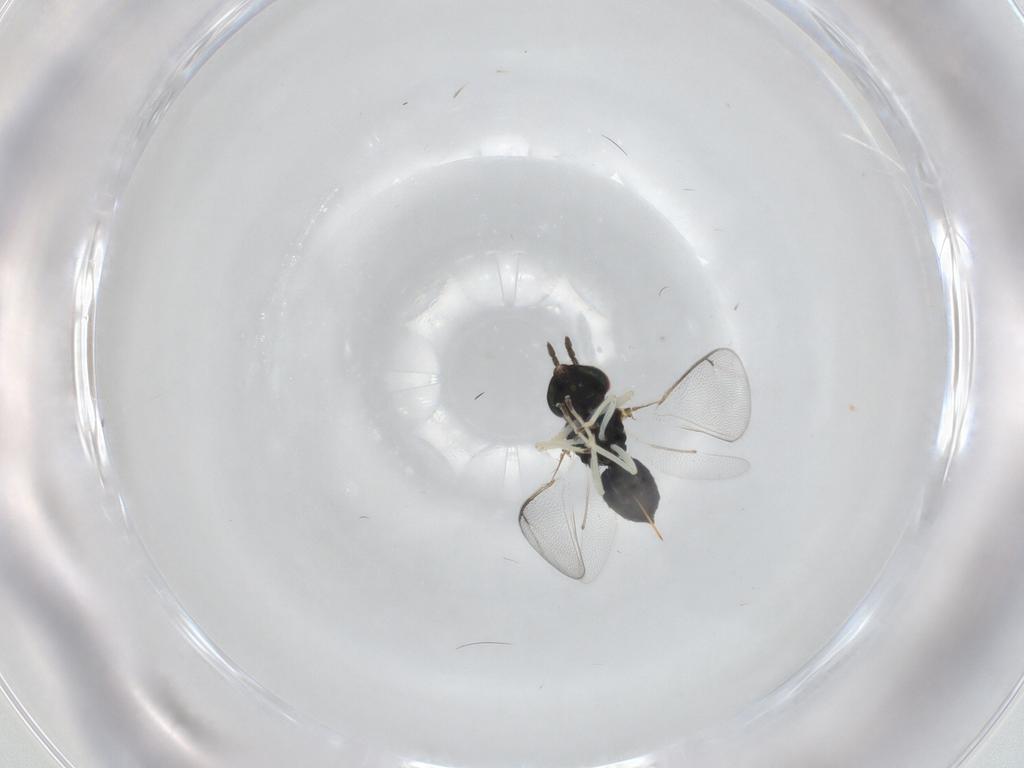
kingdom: Animalia
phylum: Arthropoda
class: Insecta
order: Hymenoptera
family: Eulophidae
